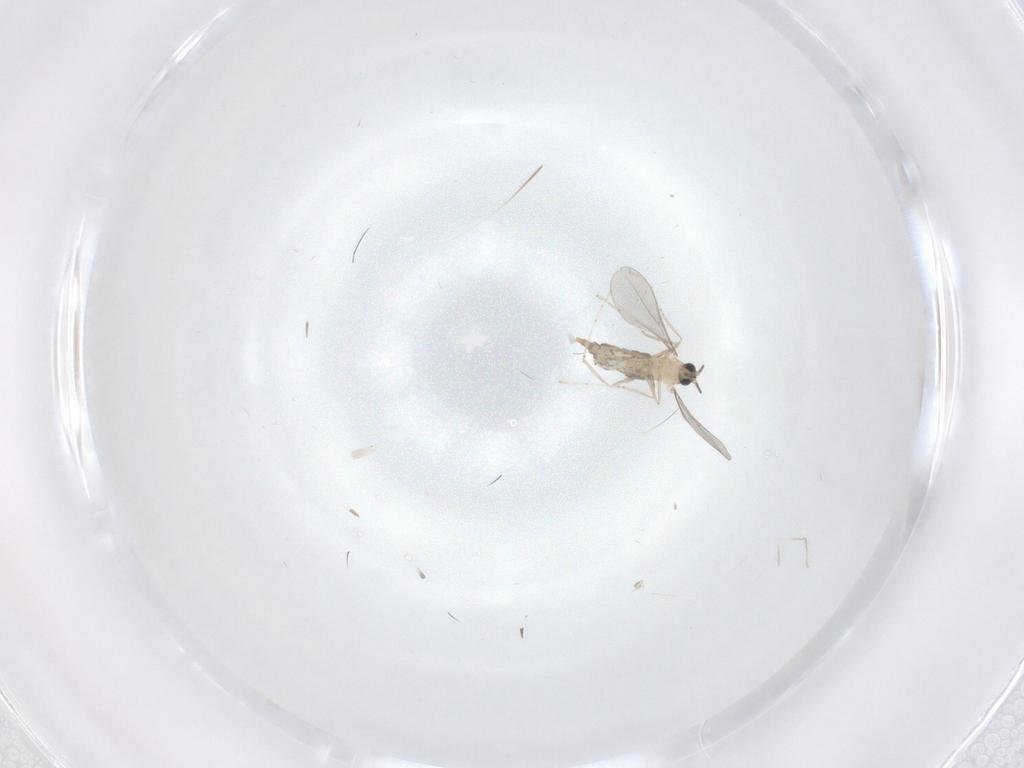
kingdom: Animalia
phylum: Arthropoda
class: Insecta
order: Diptera
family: Cecidomyiidae
